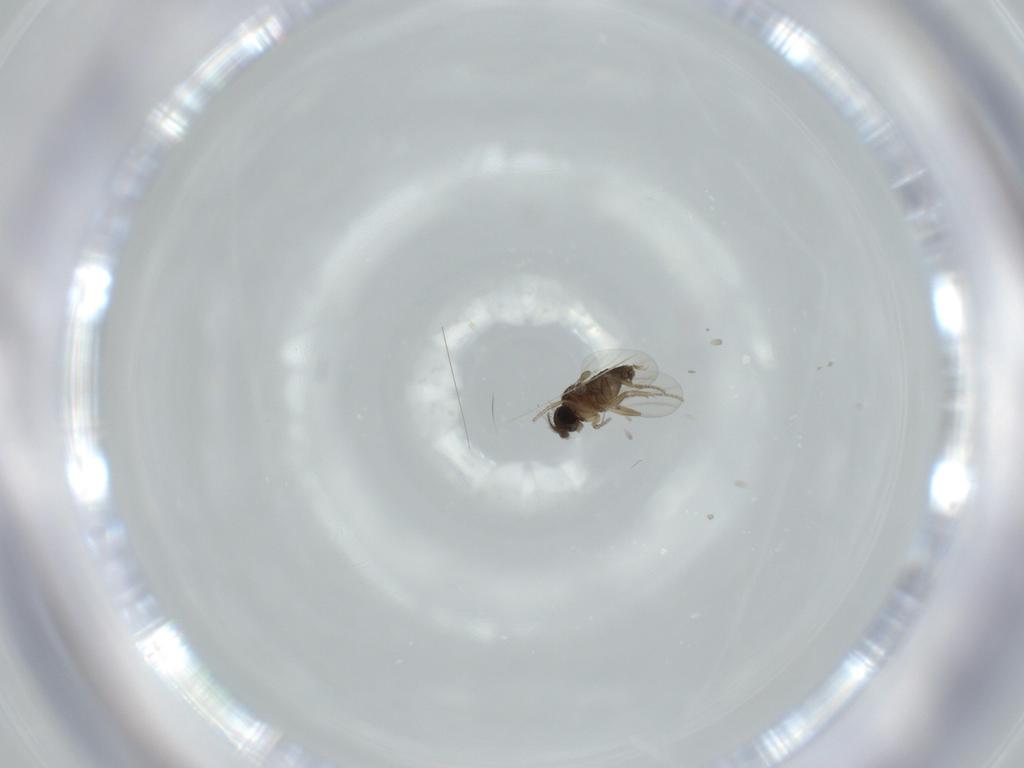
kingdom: Animalia
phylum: Arthropoda
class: Insecta
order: Diptera
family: Phoridae
